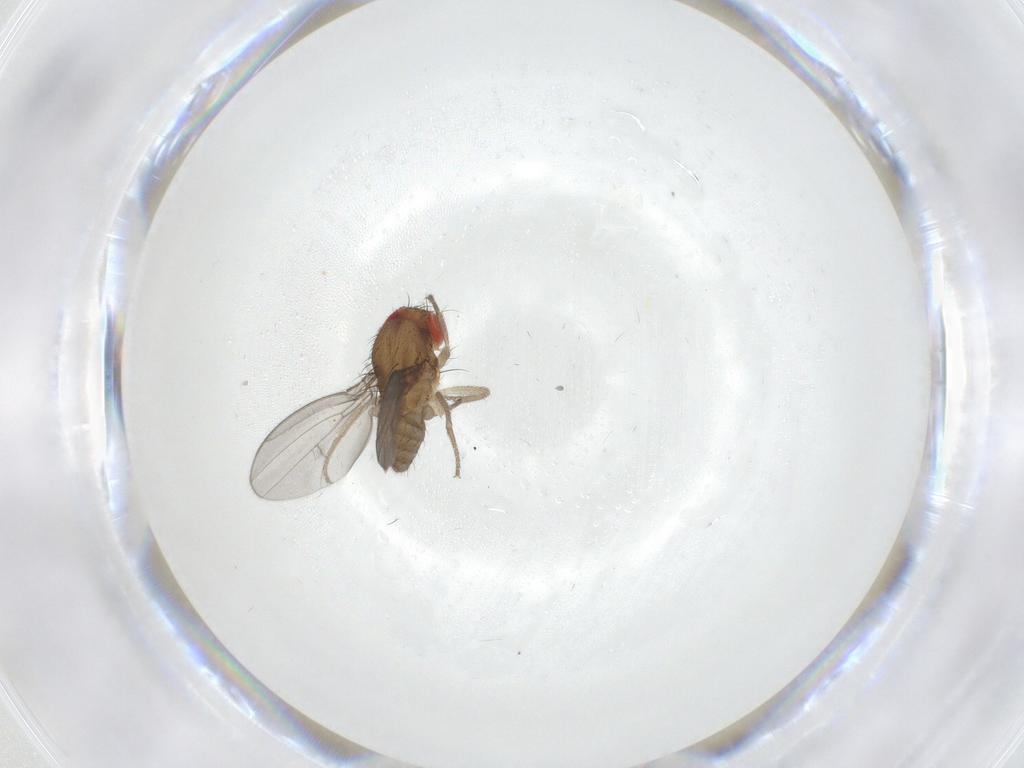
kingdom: Animalia
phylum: Arthropoda
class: Insecta
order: Diptera
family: Drosophilidae
